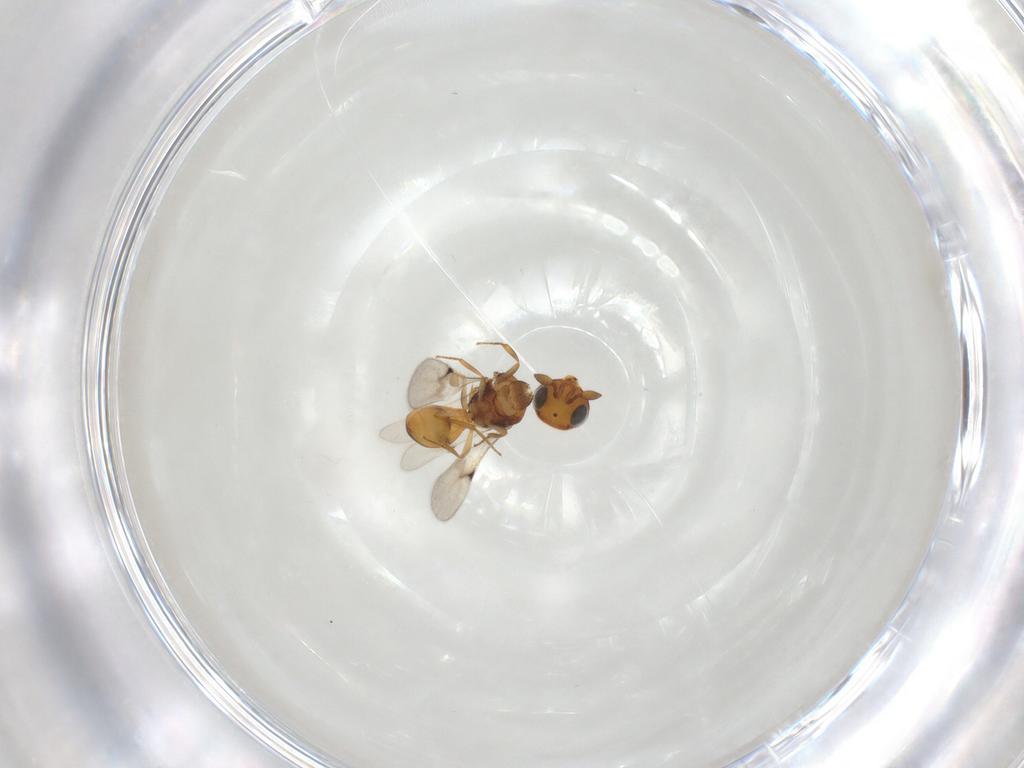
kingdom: Animalia
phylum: Arthropoda
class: Insecta
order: Hymenoptera
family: Scelionidae
